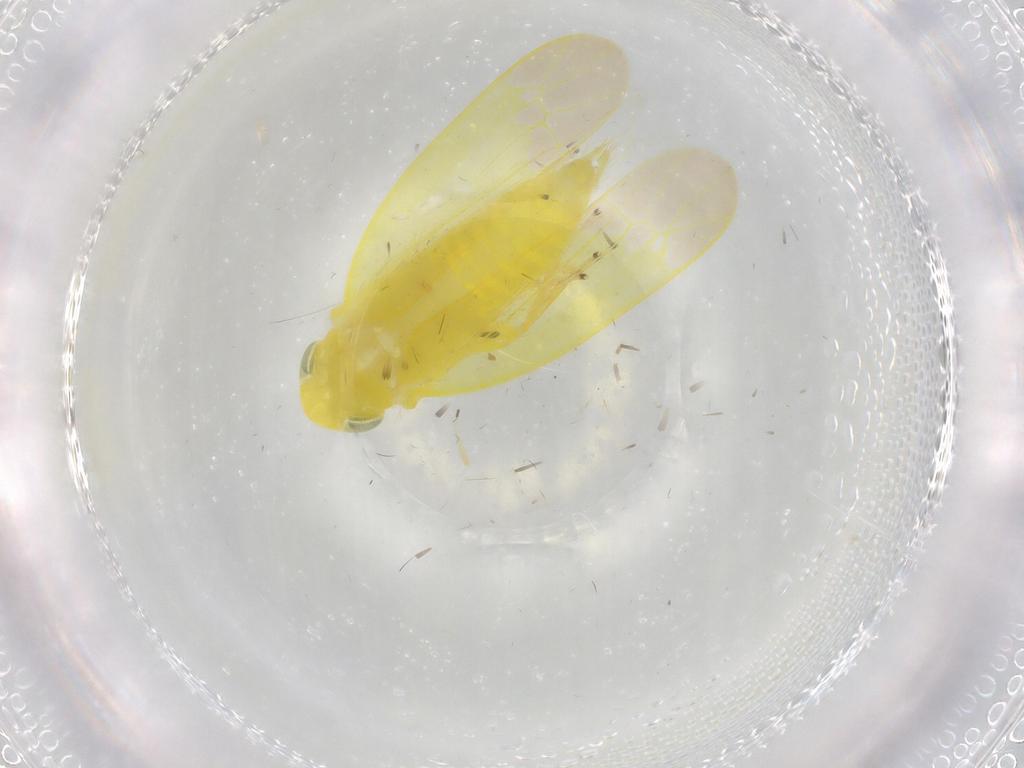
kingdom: Animalia
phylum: Arthropoda
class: Insecta
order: Hemiptera
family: Cicadellidae
